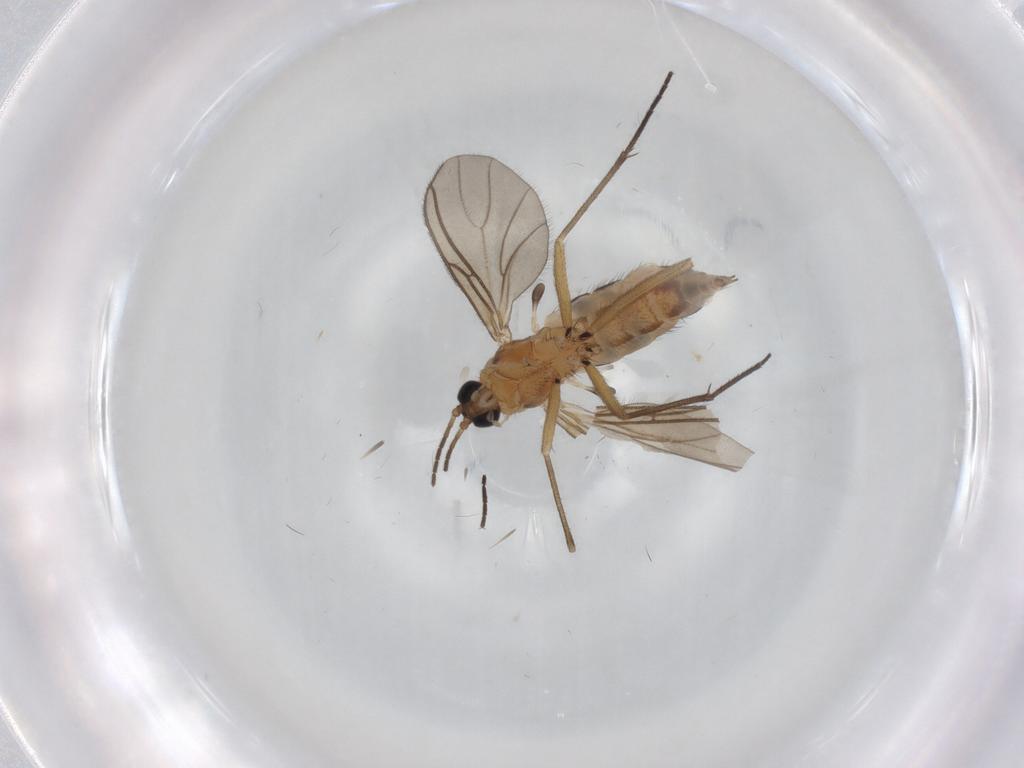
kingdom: Animalia
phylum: Arthropoda
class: Insecta
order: Diptera
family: Sciaridae
